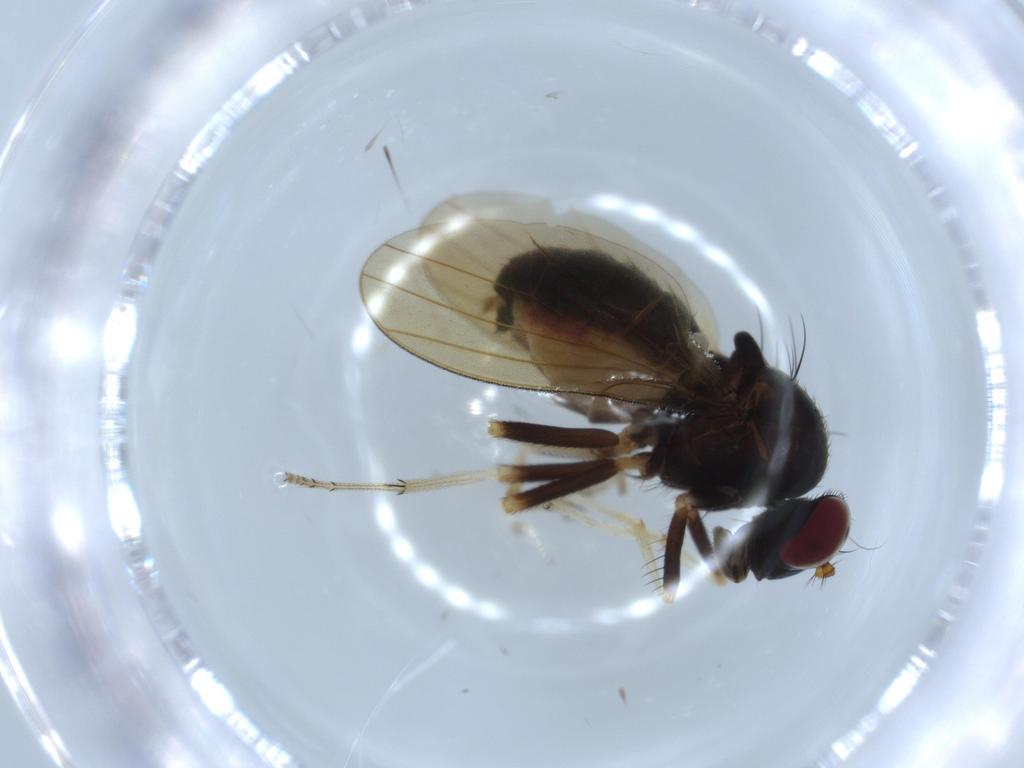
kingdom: Animalia
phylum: Arthropoda
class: Insecta
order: Diptera
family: Cecidomyiidae
